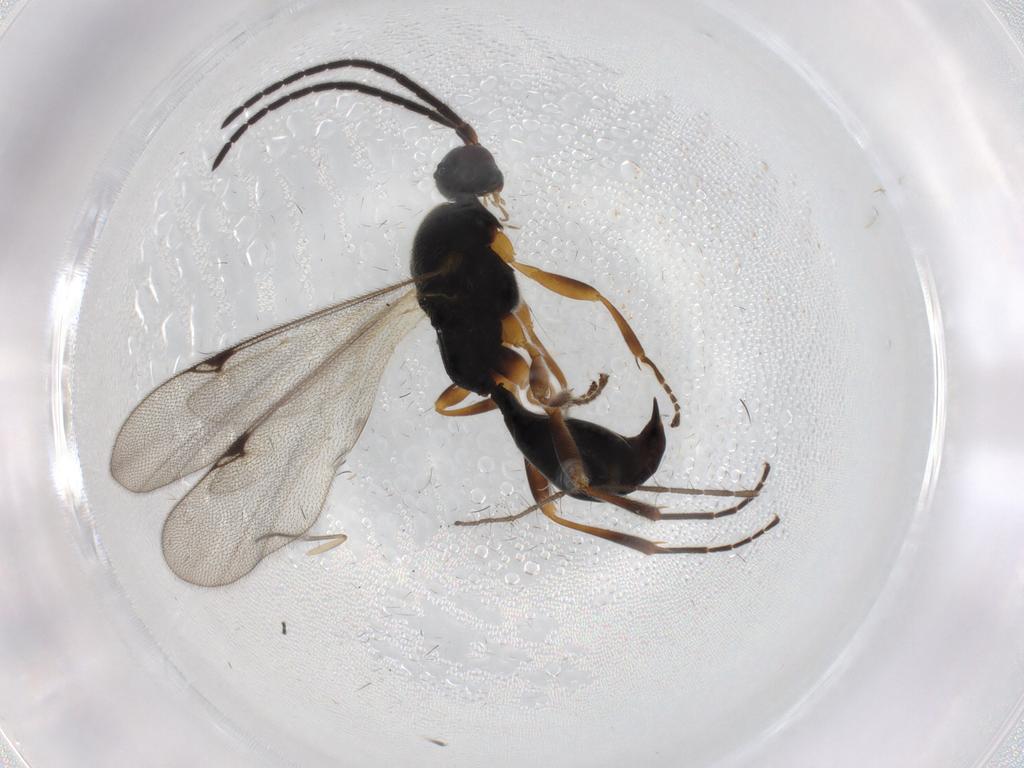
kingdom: Animalia
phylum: Arthropoda
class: Insecta
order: Hymenoptera
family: Proctotrupidae
